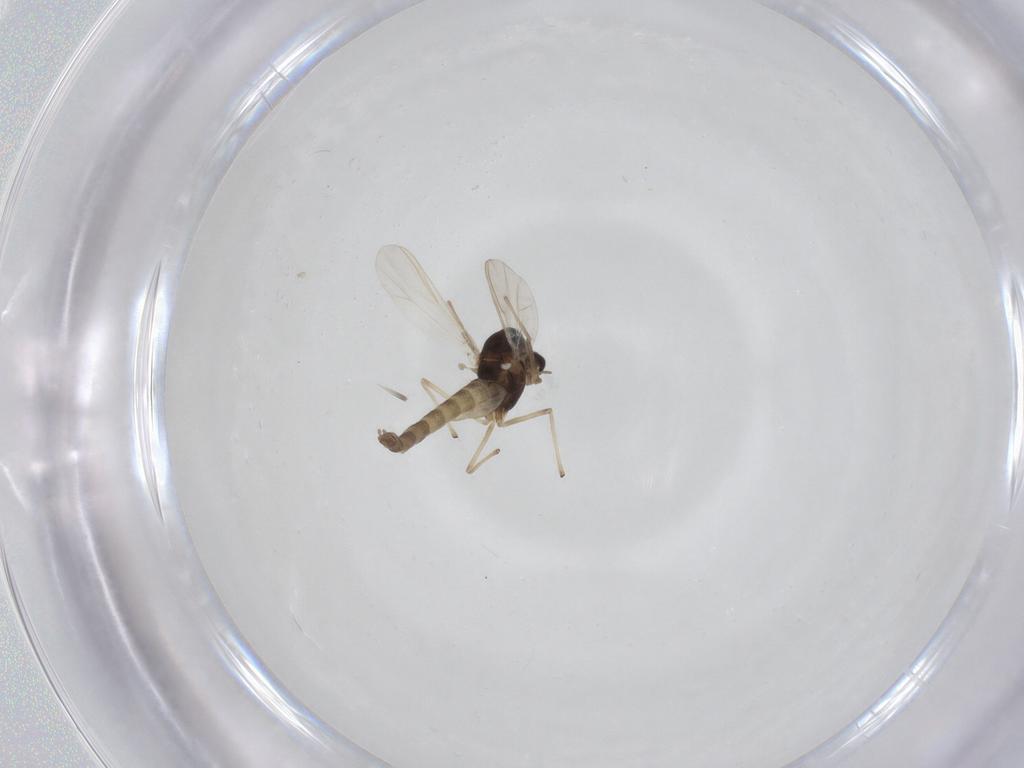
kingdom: Animalia
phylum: Arthropoda
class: Insecta
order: Diptera
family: Chironomidae
